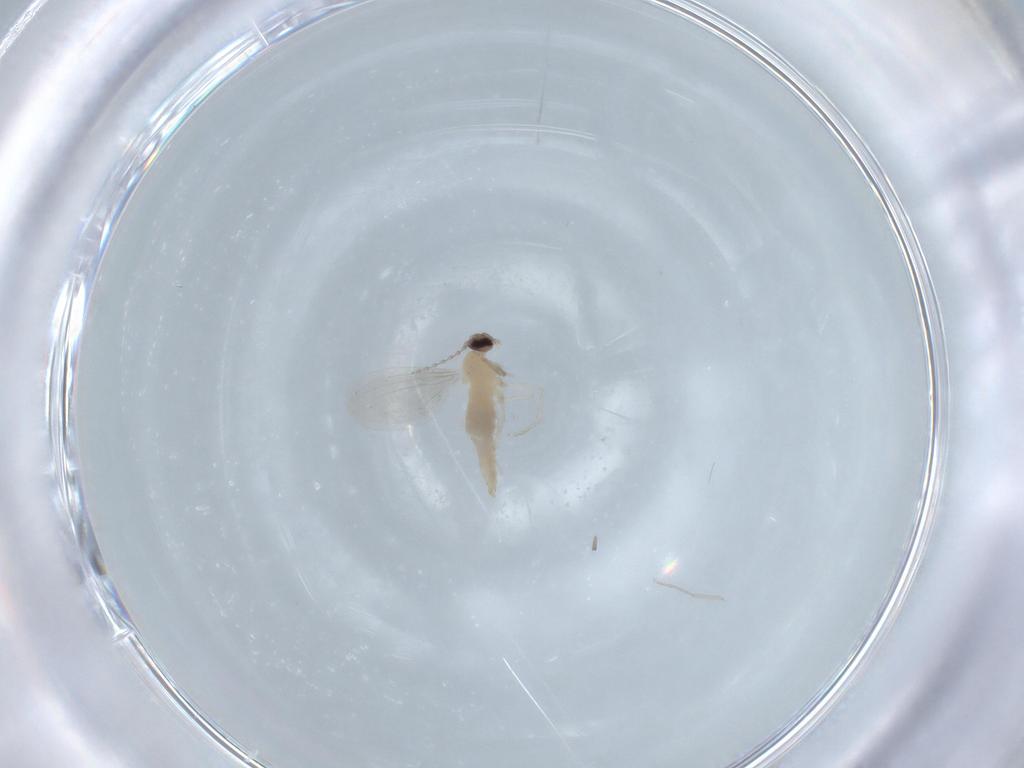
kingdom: Animalia
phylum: Arthropoda
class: Insecta
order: Diptera
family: Cecidomyiidae
